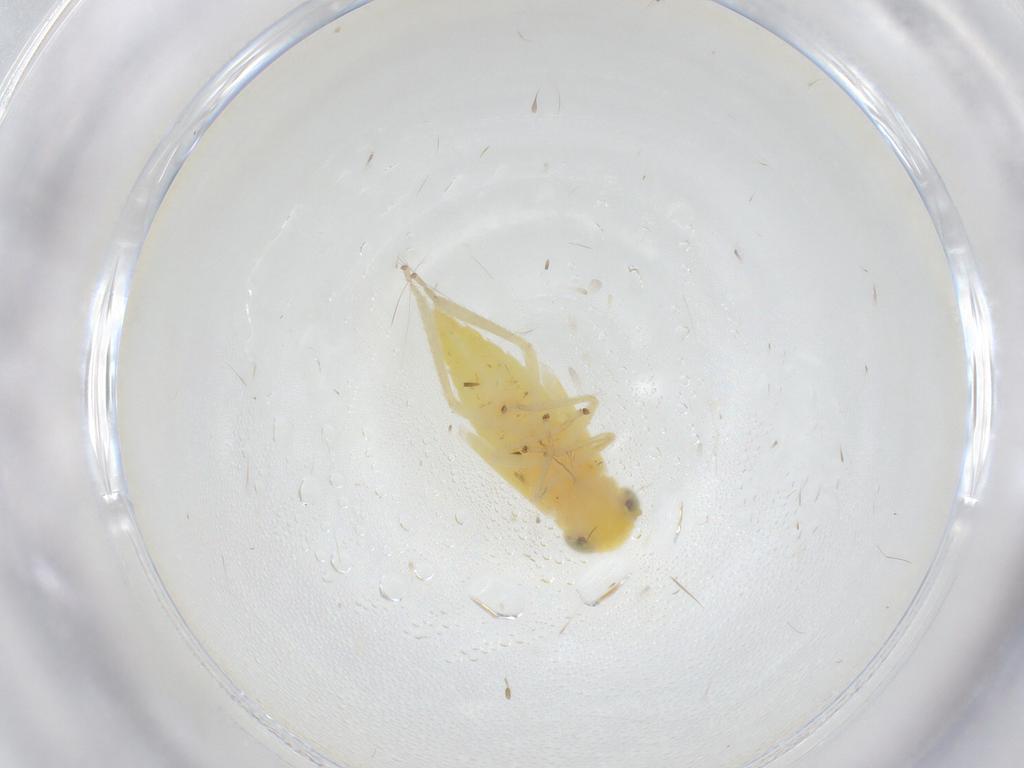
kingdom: Animalia
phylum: Arthropoda
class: Insecta
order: Hemiptera
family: Cicadellidae
